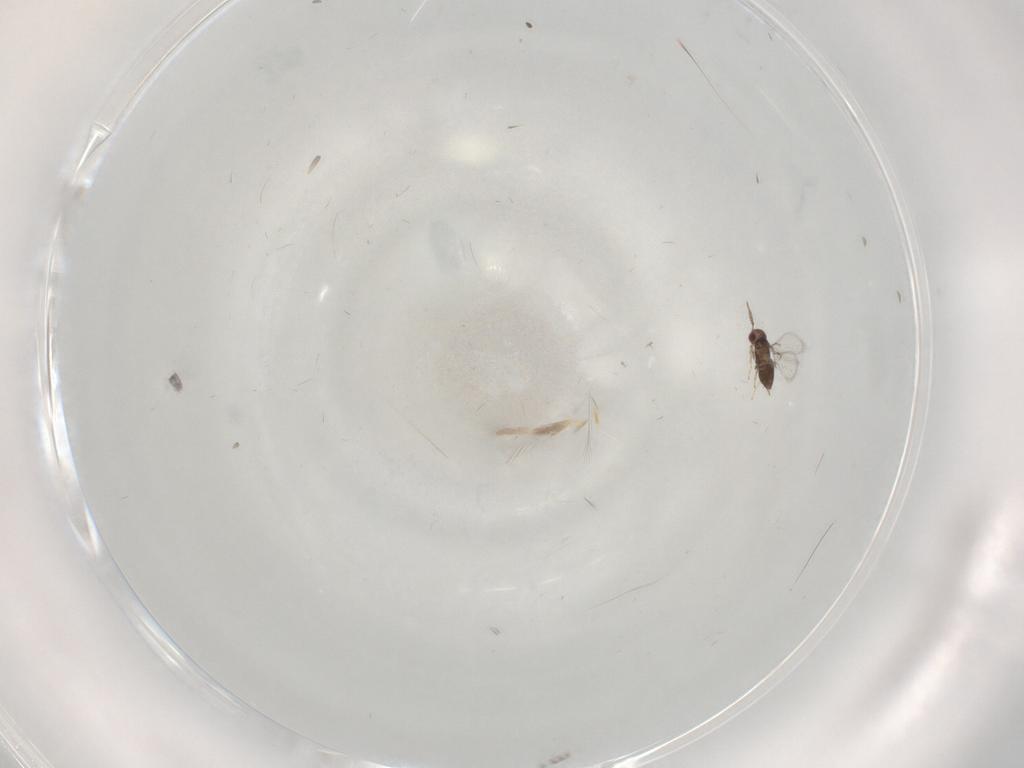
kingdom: Animalia
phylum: Arthropoda
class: Insecta
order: Hymenoptera
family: Trichogrammatidae
